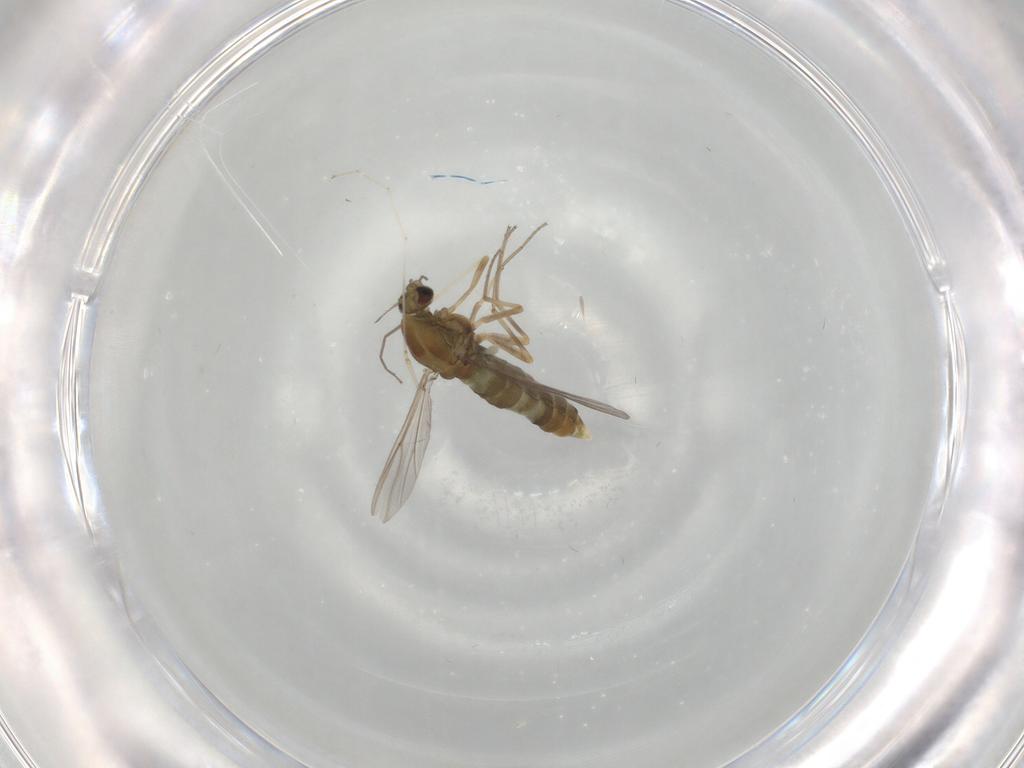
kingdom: Animalia
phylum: Arthropoda
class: Insecta
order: Diptera
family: Chironomidae
